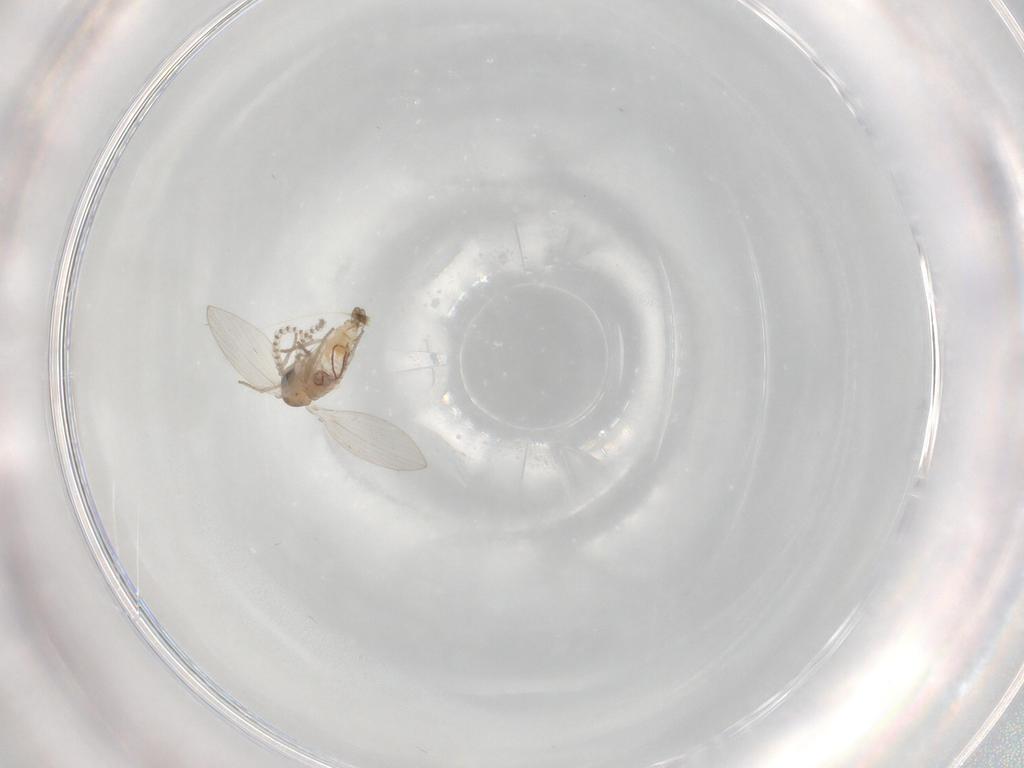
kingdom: Animalia
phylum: Arthropoda
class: Insecta
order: Diptera
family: Psychodidae
